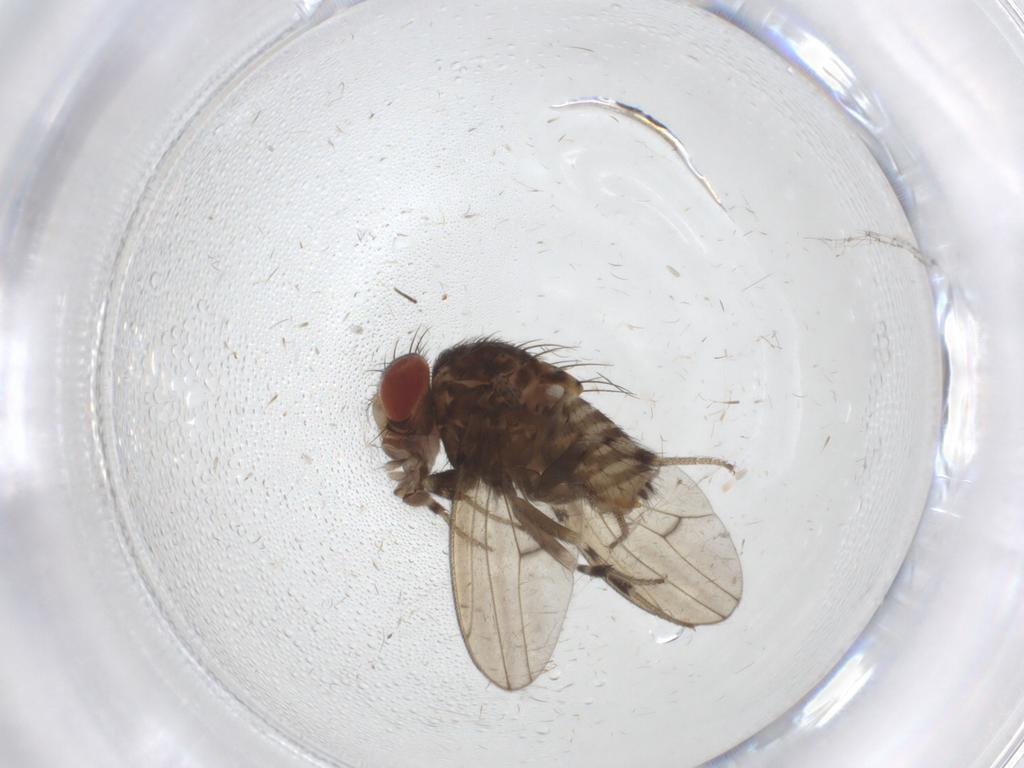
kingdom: Animalia
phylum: Arthropoda
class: Insecta
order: Diptera
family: Drosophilidae
